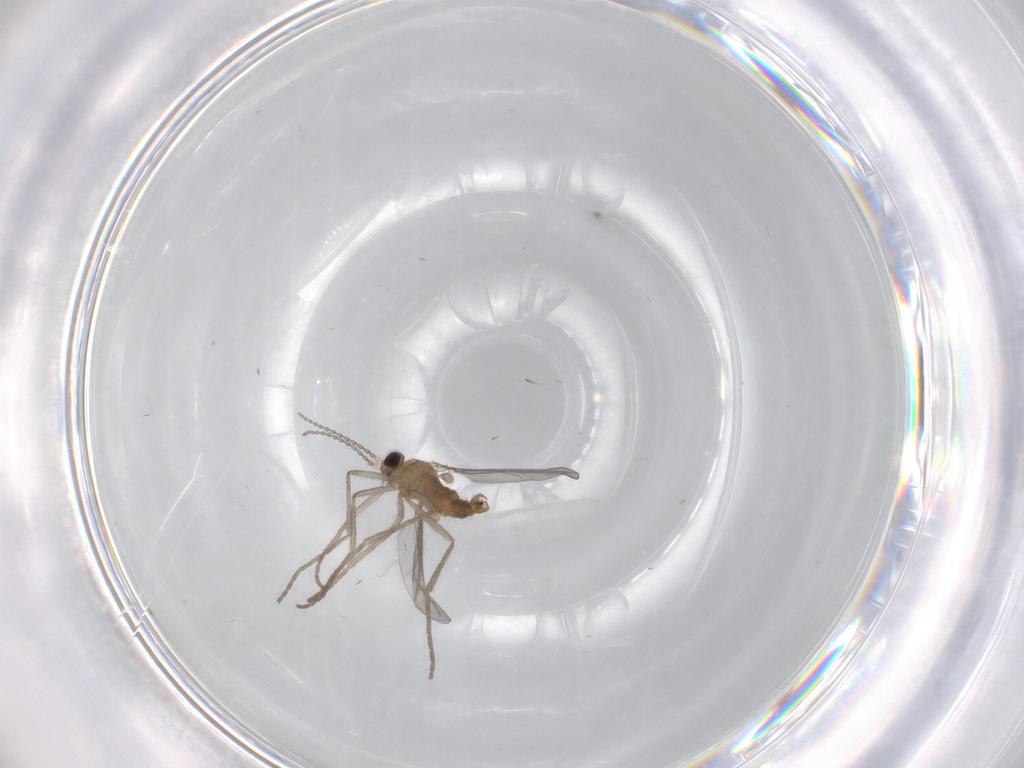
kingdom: Animalia
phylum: Arthropoda
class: Insecta
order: Diptera
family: Cecidomyiidae
